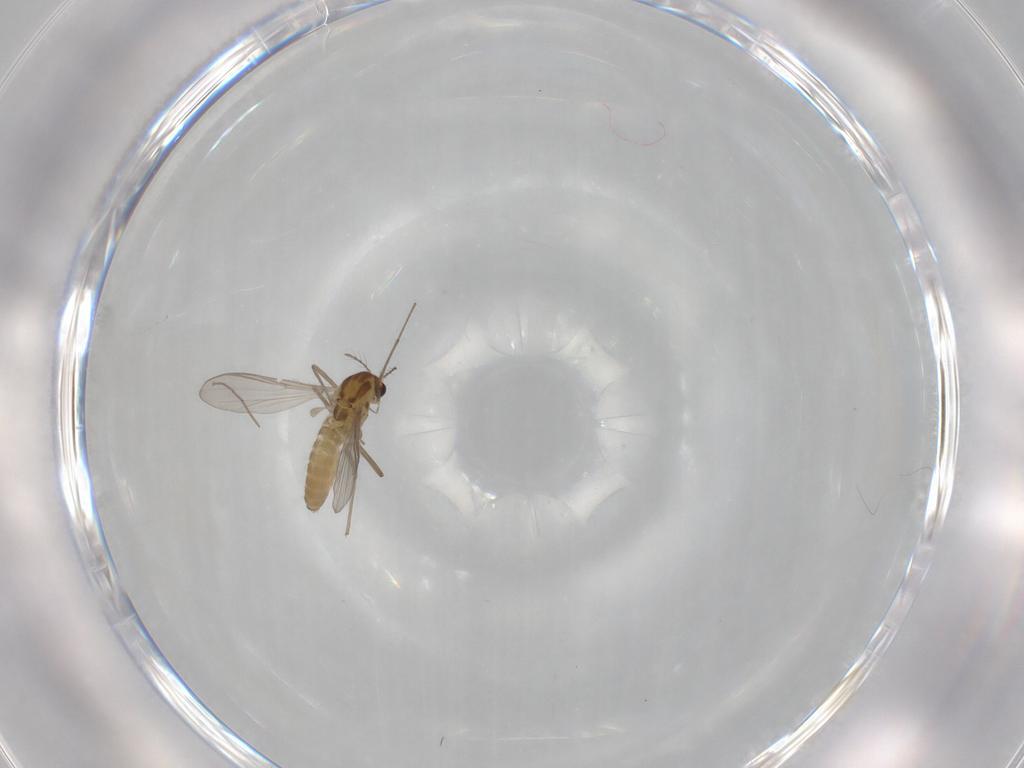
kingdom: Animalia
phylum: Arthropoda
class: Insecta
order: Diptera
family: Chironomidae
